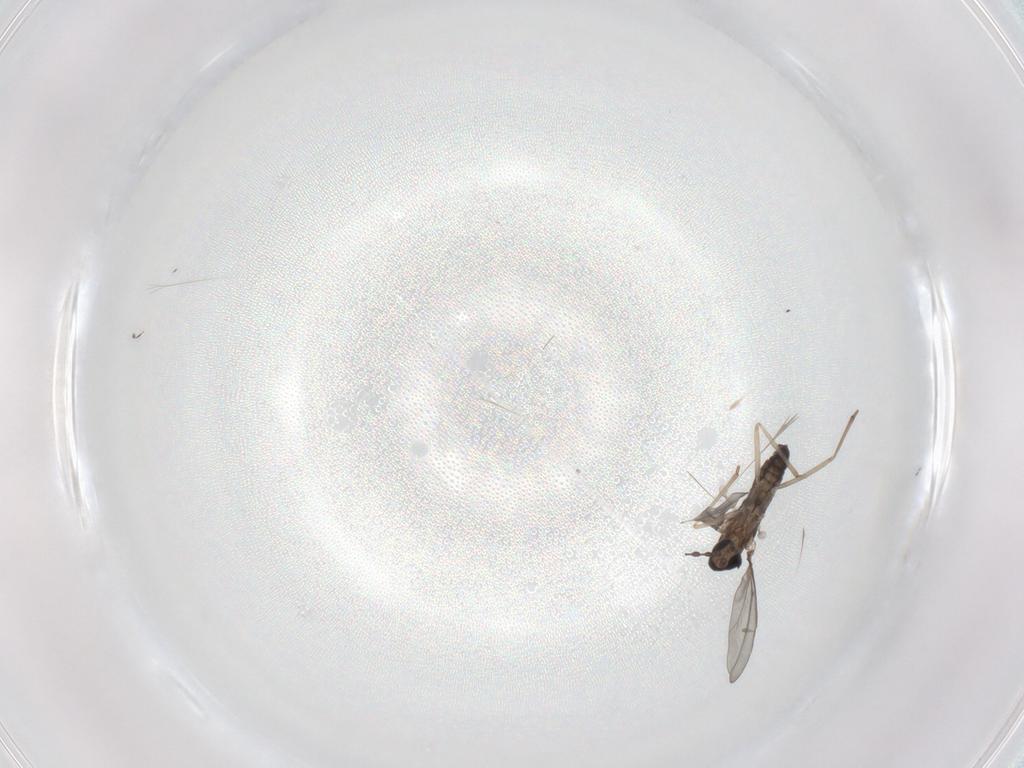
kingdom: Animalia
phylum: Arthropoda
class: Insecta
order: Diptera
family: Cecidomyiidae
